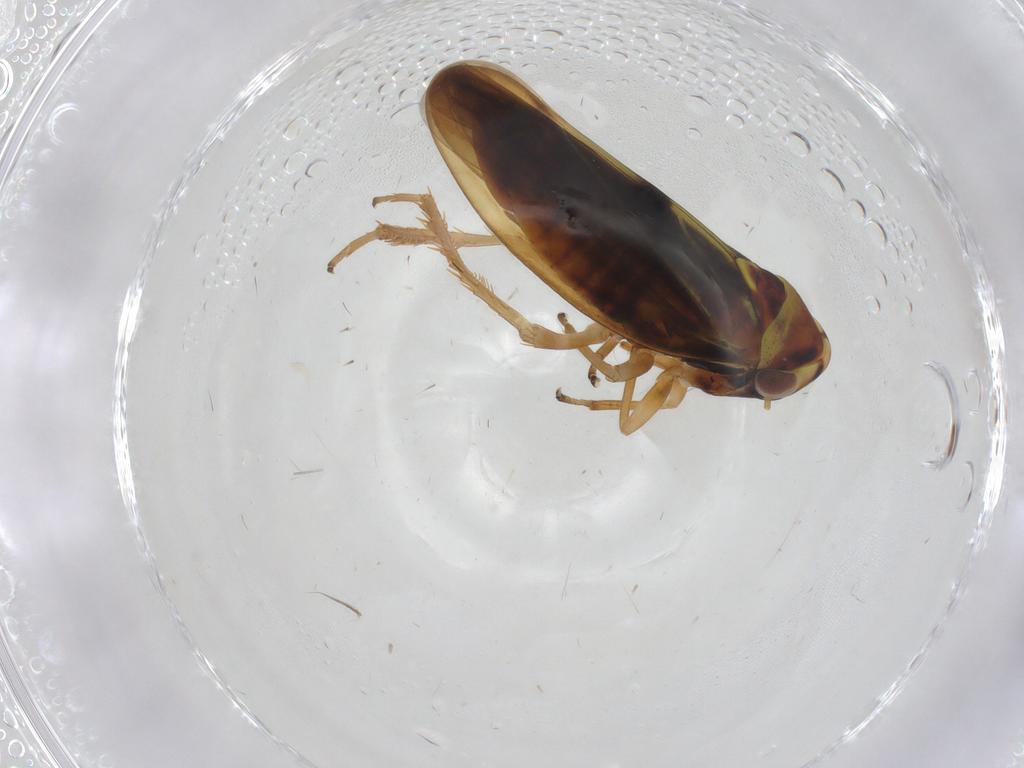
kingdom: Animalia
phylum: Arthropoda
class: Insecta
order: Hemiptera
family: Cicadellidae
